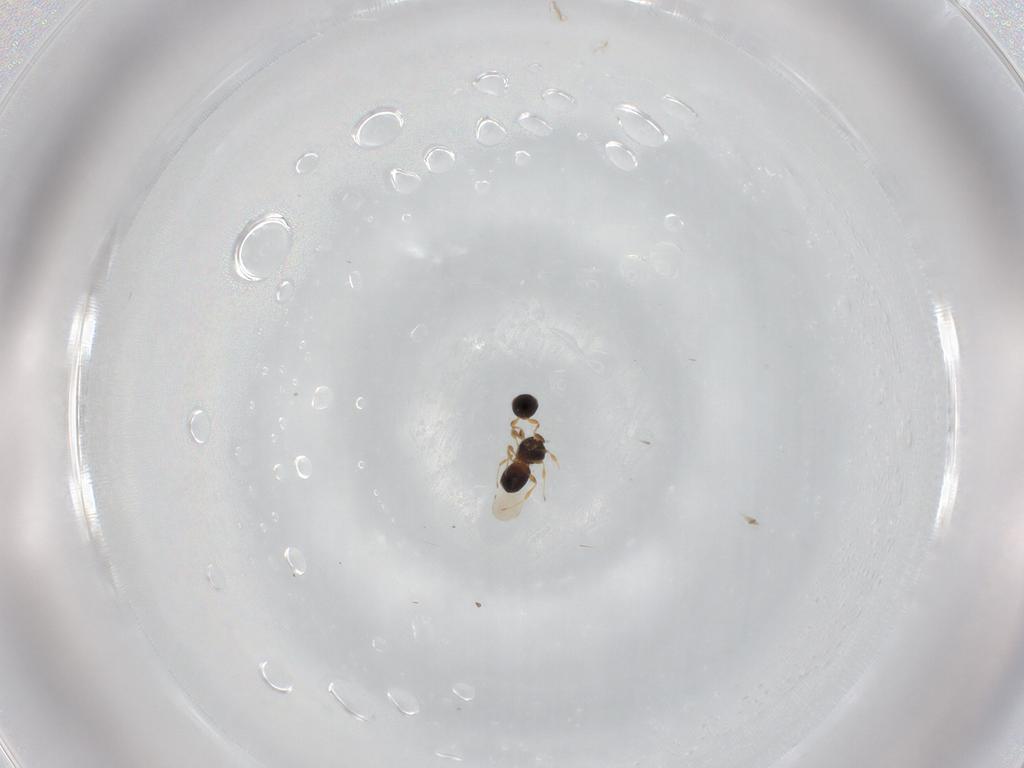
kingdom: Animalia
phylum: Arthropoda
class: Insecta
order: Hymenoptera
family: Platygastridae
